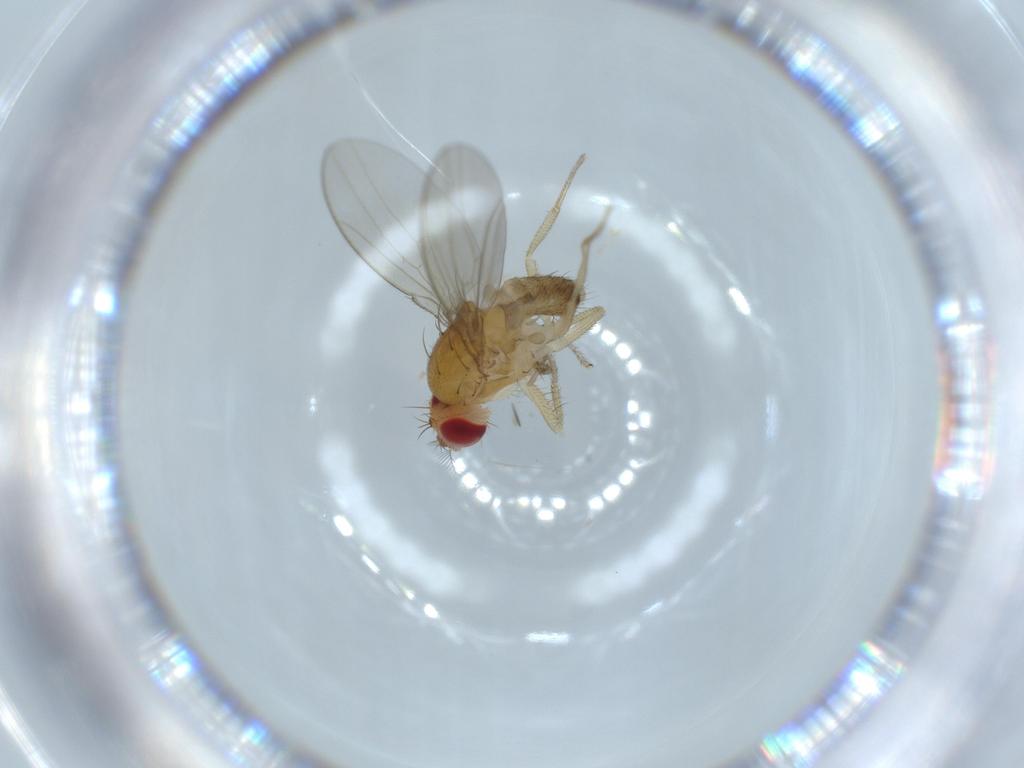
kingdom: Animalia
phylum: Arthropoda
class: Insecta
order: Diptera
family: Drosophilidae
